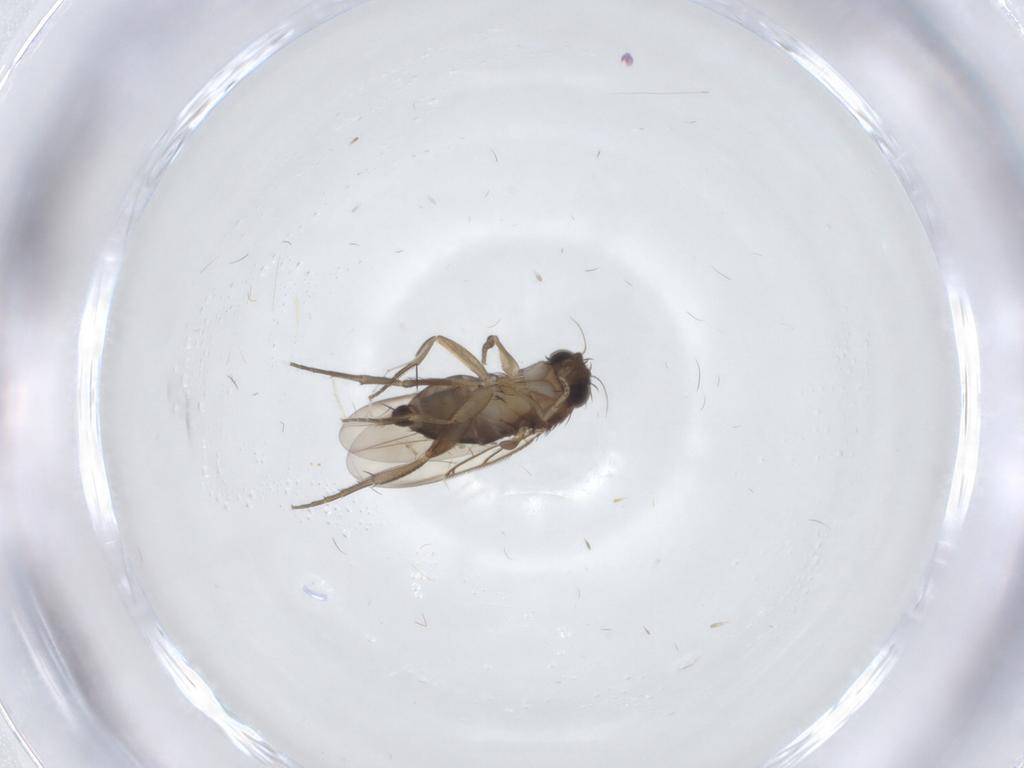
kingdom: Animalia
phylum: Arthropoda
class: Insecta
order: Diptera
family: Phoridae
